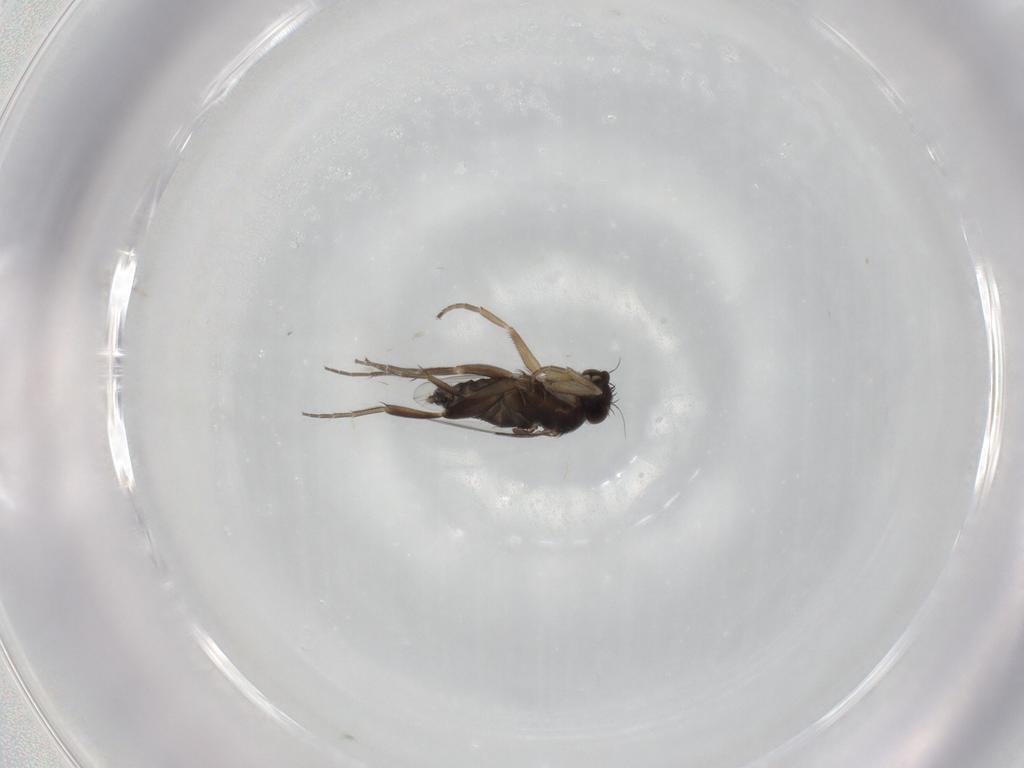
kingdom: Animalia
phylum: Arthropoda
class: Insecta
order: Diptera
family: Phoridae
